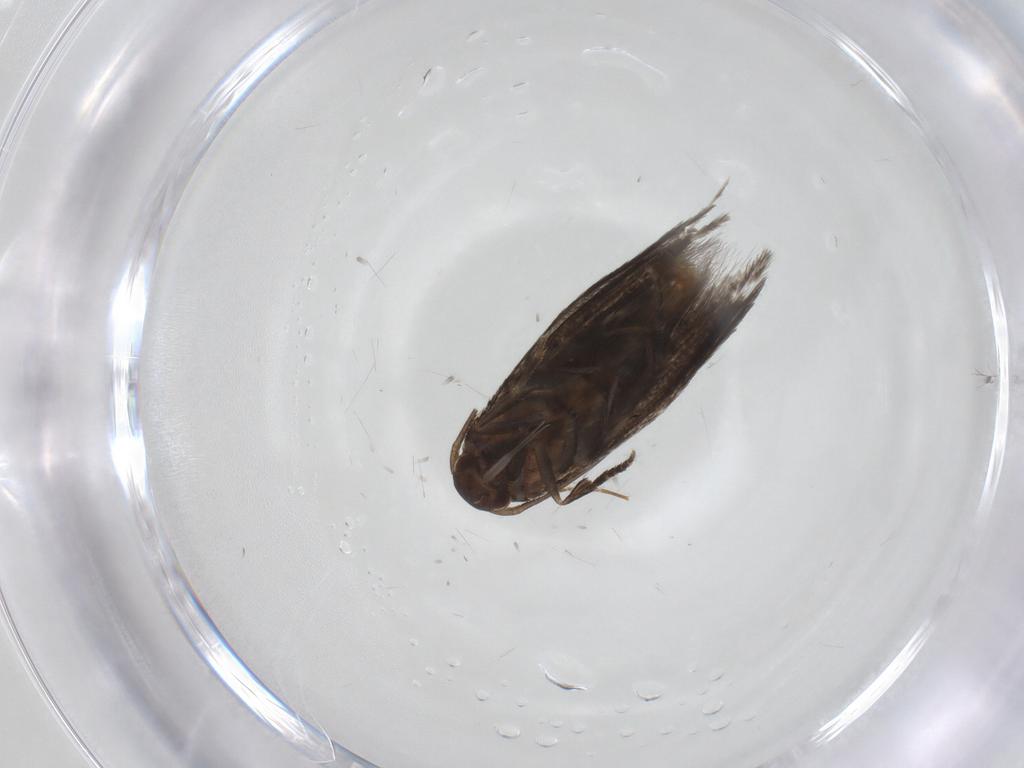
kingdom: Animalia
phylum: Arthropoda
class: Insecta
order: Lepidoptera
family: Elachistidae
